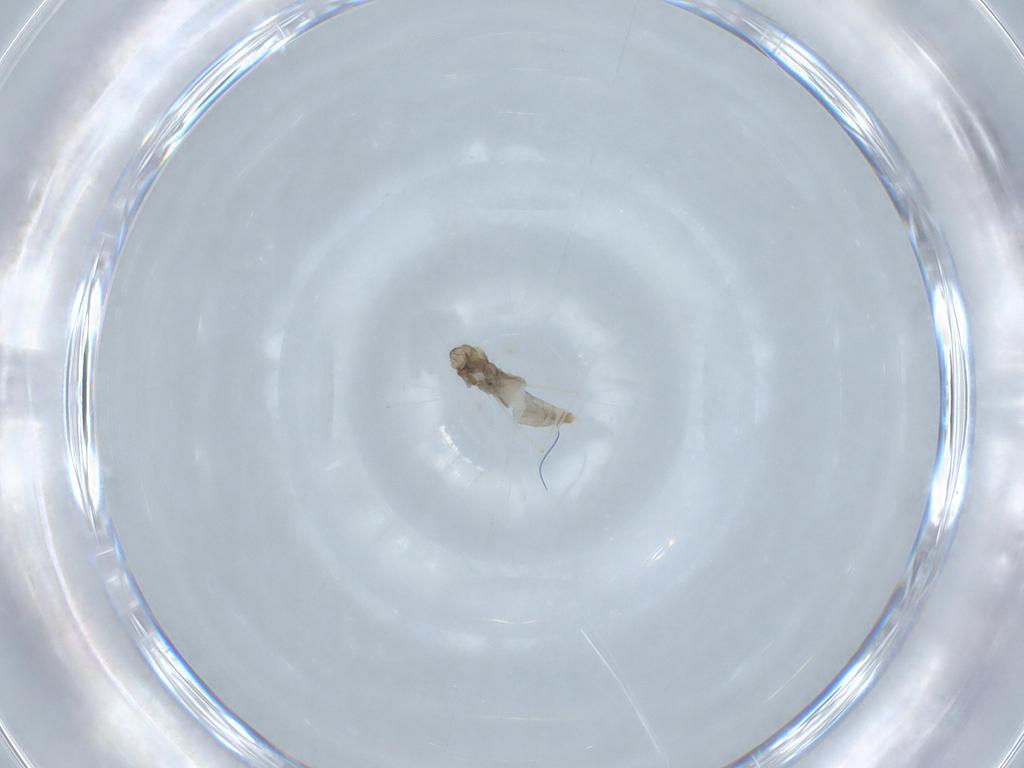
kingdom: Animalia
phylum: Arthropoda
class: Insecta
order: Diptera
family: Cecidomyiidae
